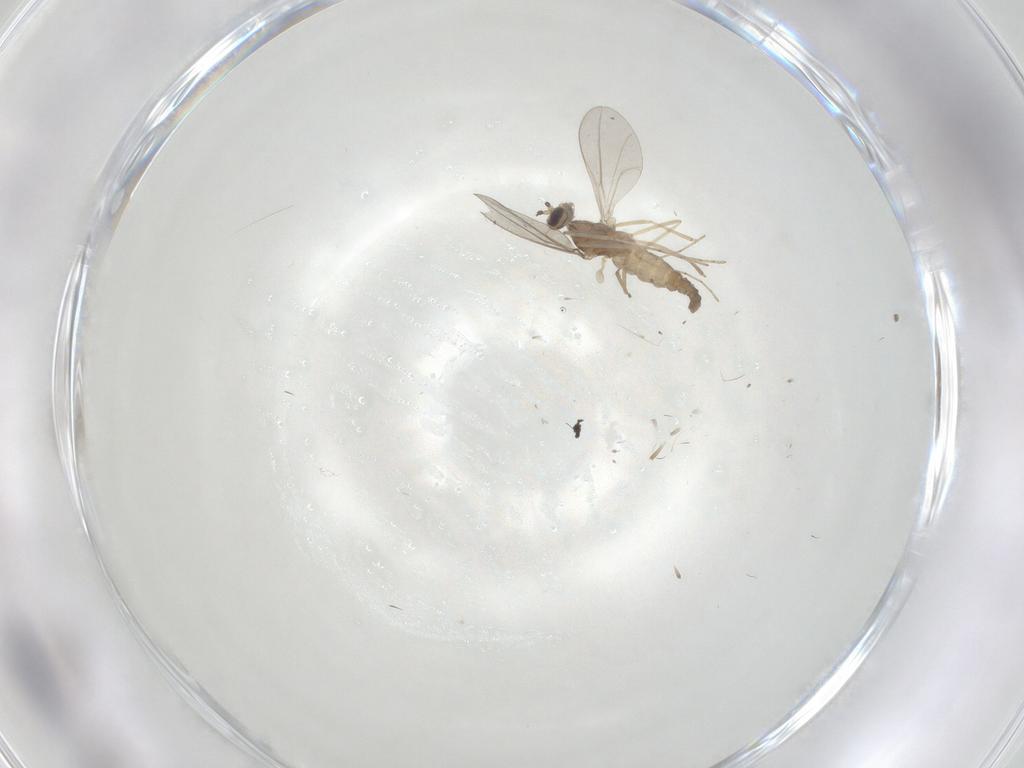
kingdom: Animalia
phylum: Arthropoda
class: Insecta
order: Diptera
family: Cecidomyiidae
